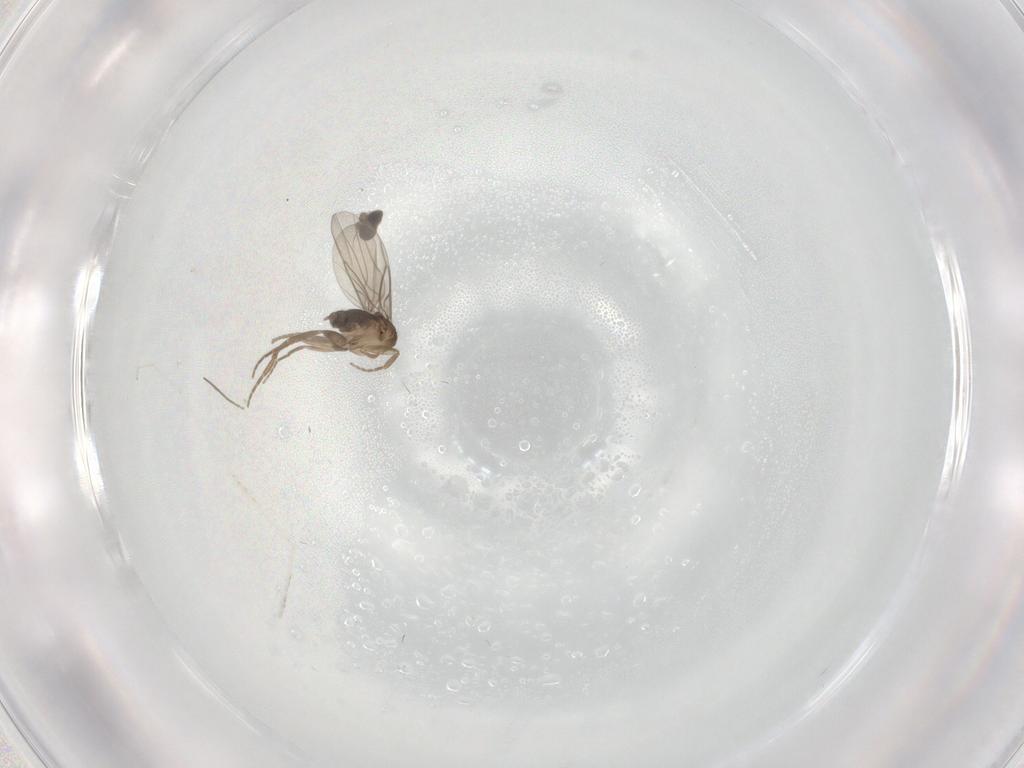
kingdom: Animalia
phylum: Arthropoda
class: Insecta
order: Diptera
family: Cecidomyiidae
